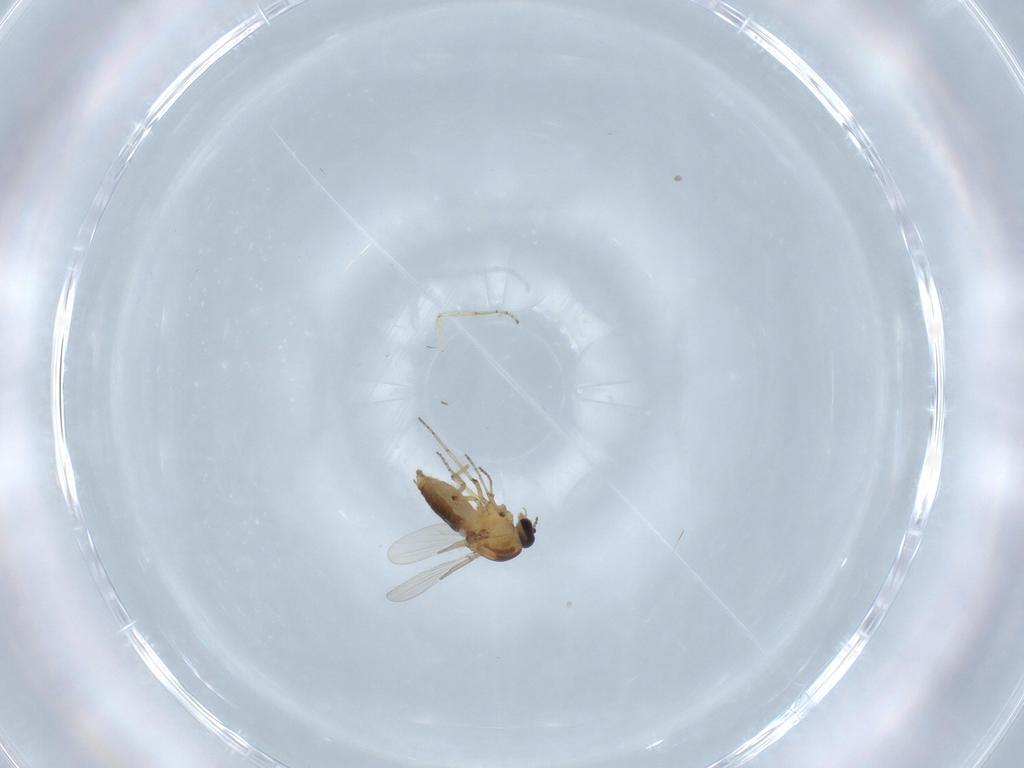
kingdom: Animalia
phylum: Arthropoda
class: Insecta
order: Diptera
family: Ceratopogonidae
